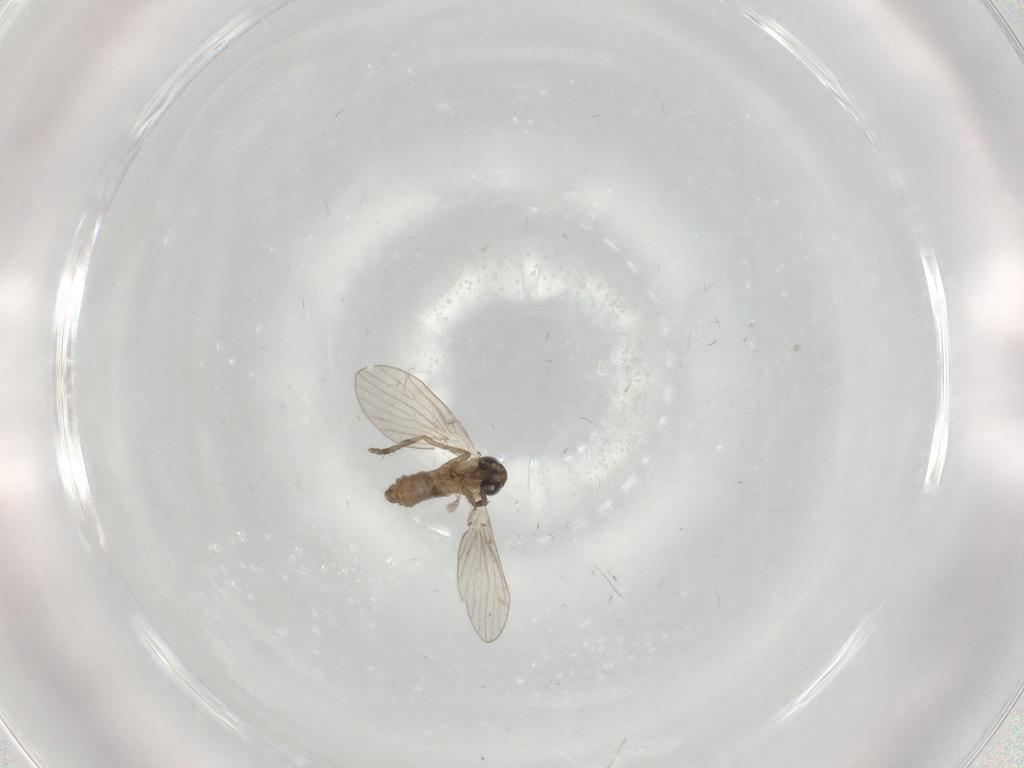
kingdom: Animalia
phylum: Arthropoda
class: Insecta
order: Diptera
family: Psychodidae
